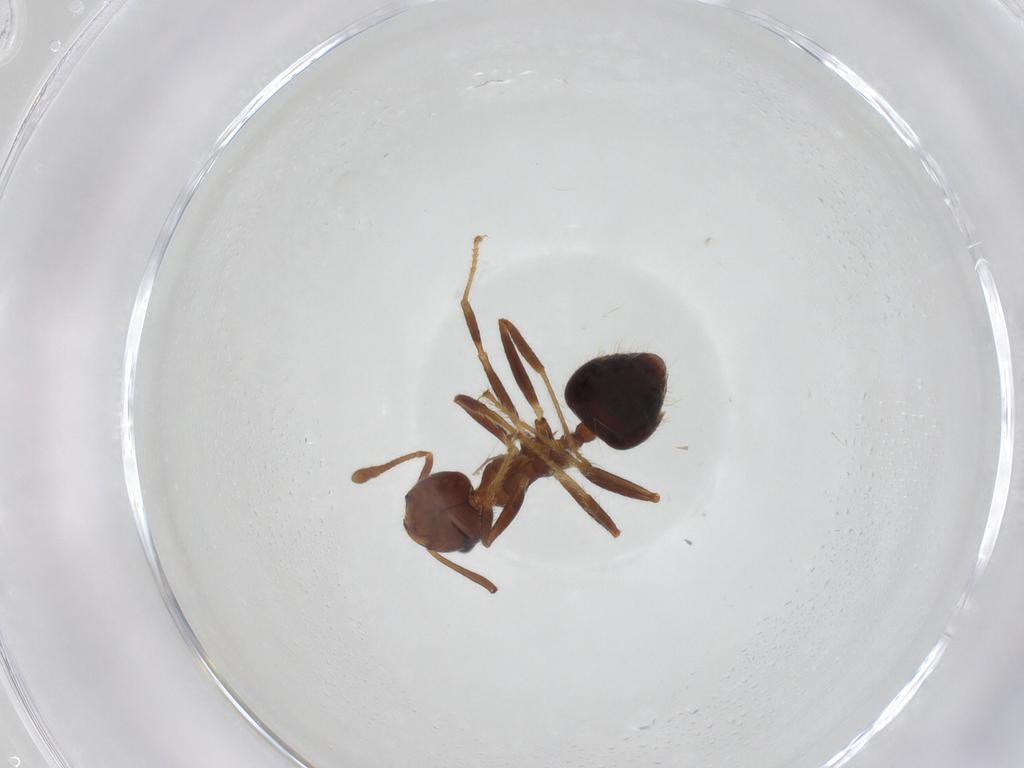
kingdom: Animalia
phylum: Arthropoda
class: Insecta
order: Hymenoptera
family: Formicidae
